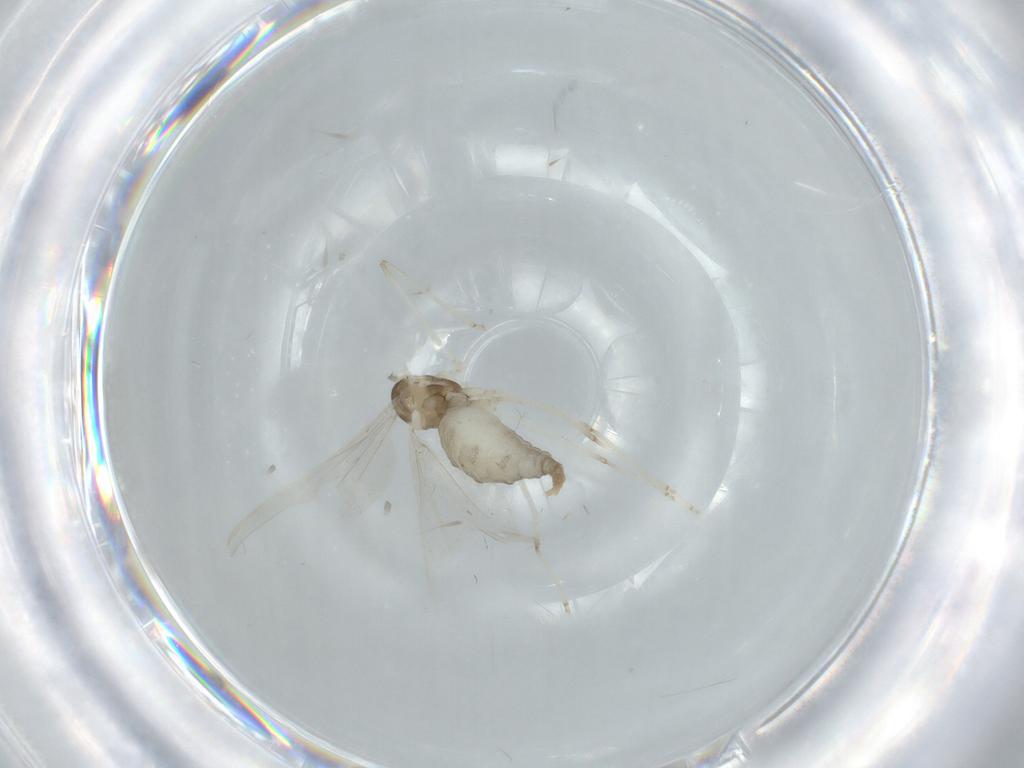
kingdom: Animalia
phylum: Arthropoda
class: Insecta
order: Diptera
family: Cecidomyiidae
